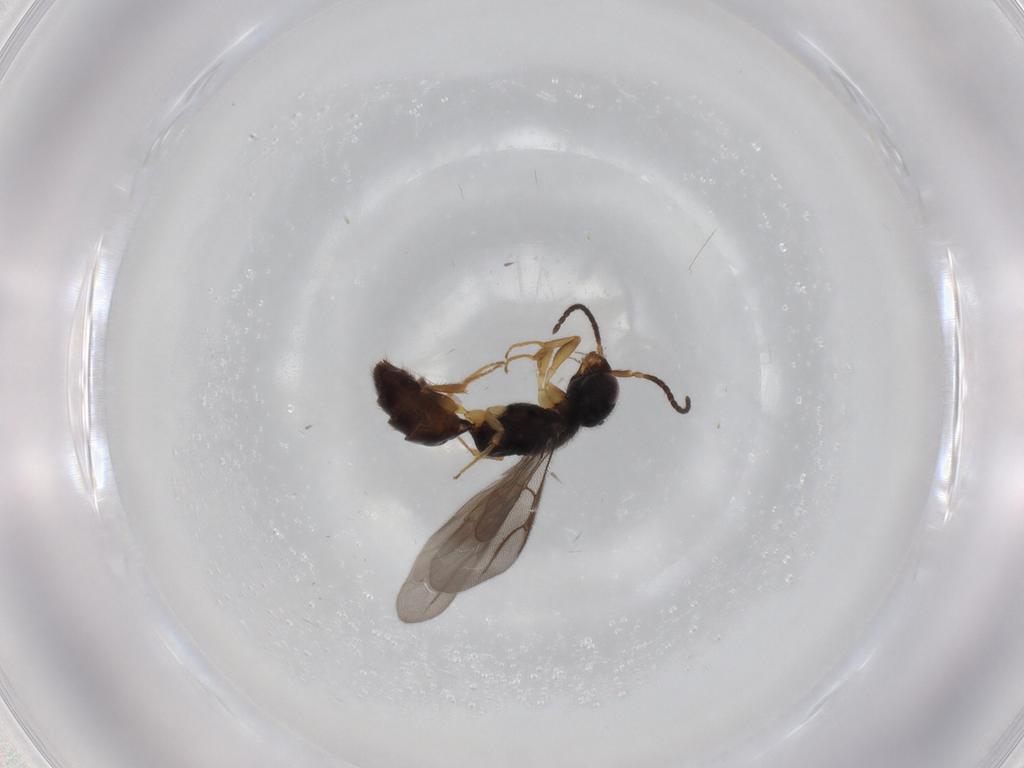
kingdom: Animalia
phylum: Arthropoda
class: Insecta
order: Hymenoptera
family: Bethylidae
